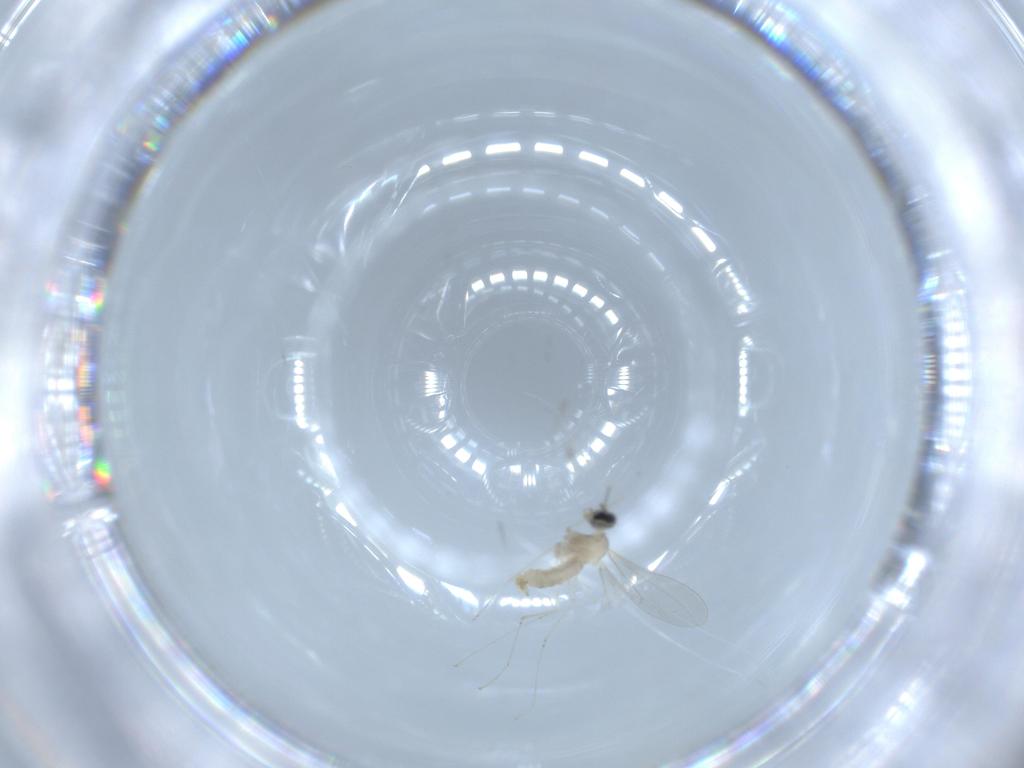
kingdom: Animalia
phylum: Arthropoda
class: Insecta
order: Diptera
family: Cecidomyiidae
